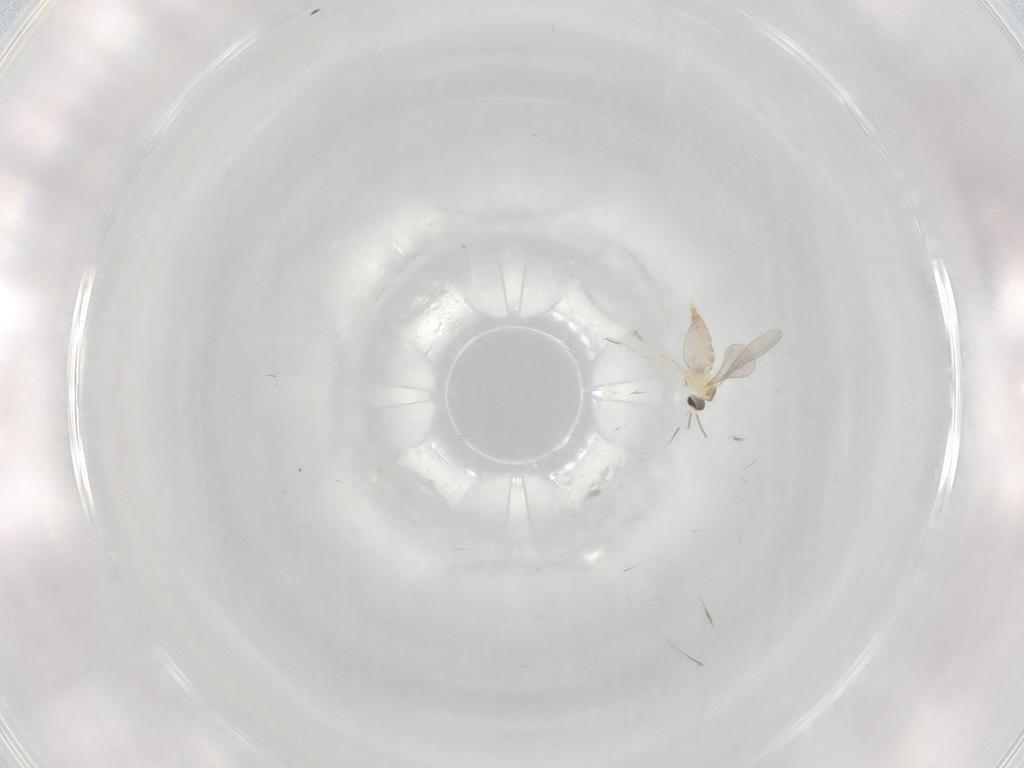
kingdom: Animalia
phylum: Arthropoda
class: Insecta
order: Diptera
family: Chironomidae
